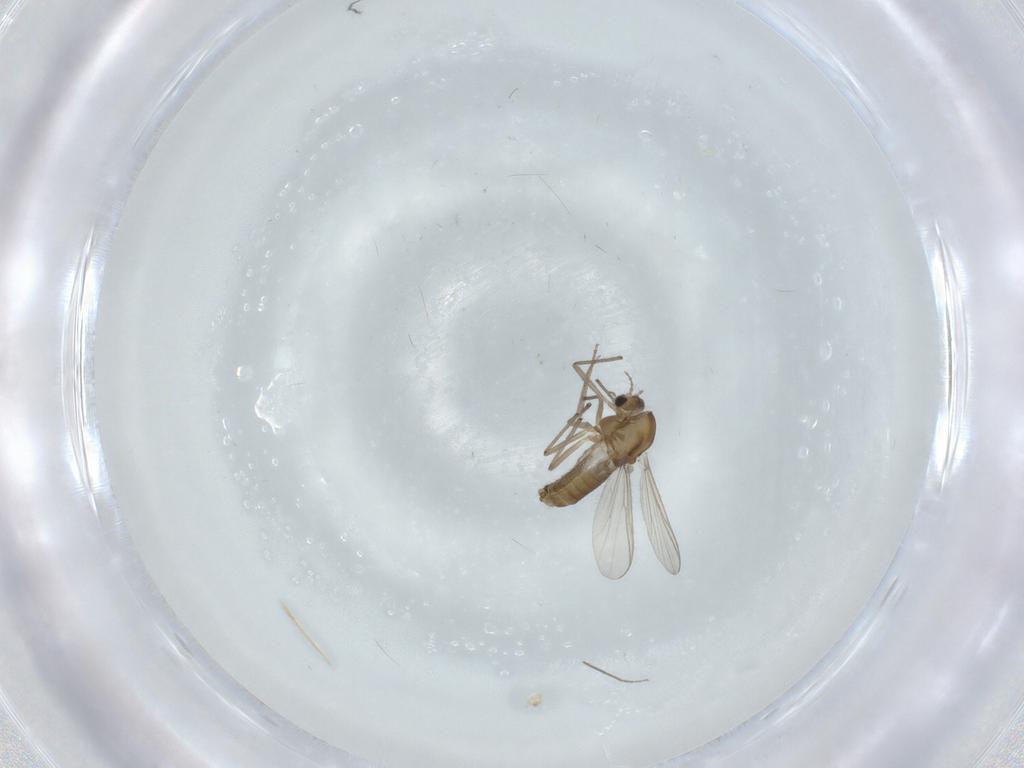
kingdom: Animalia
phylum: Arthropoda
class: Insecta
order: Diptera
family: Chironomidae
